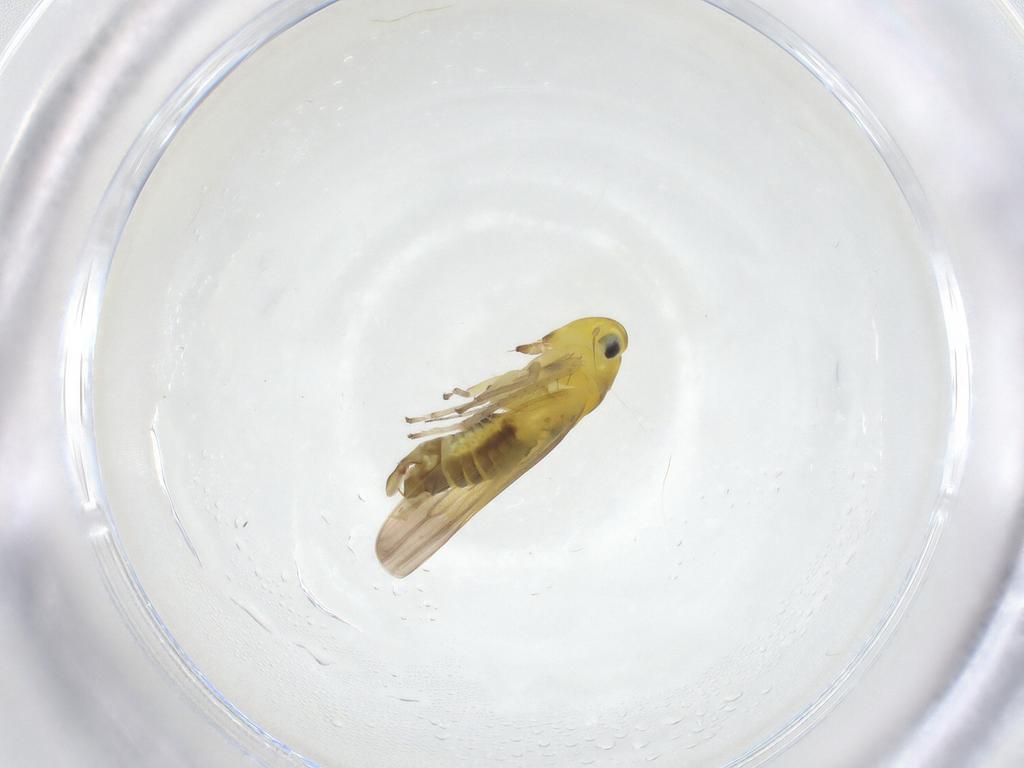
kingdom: Animalia
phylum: Arthropoda
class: Insecta
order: Hemiptera
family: Cicadellidae
